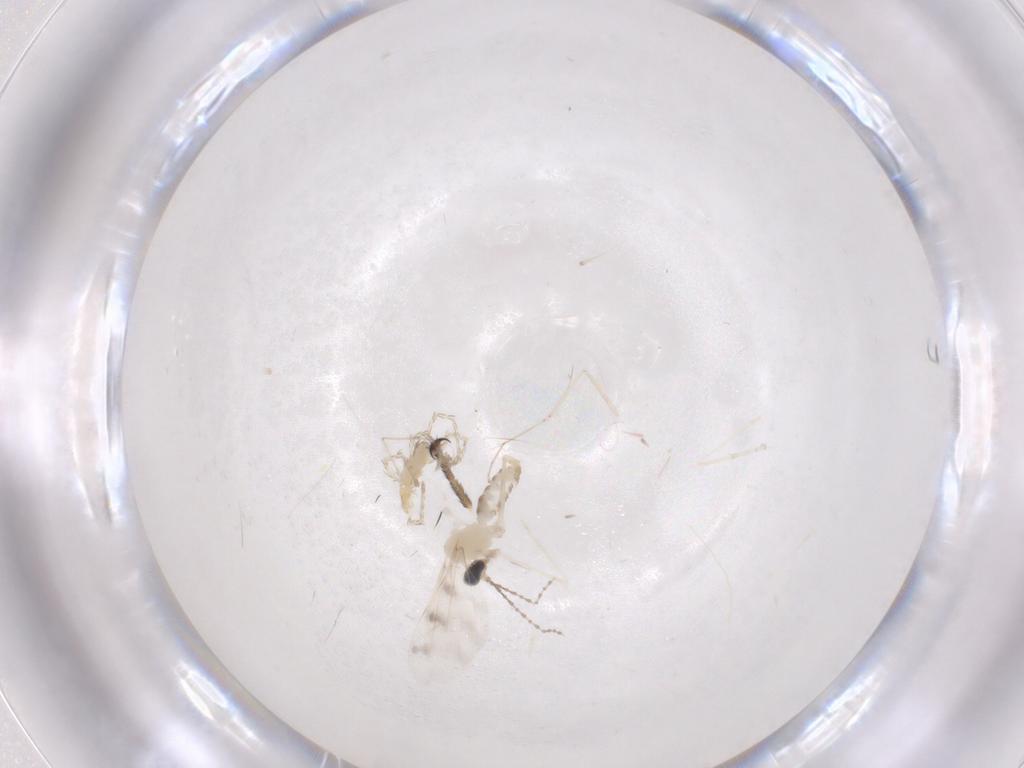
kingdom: Animalia
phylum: Arthropoda
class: Insecta
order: Diptera
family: Cecidomyiidae
